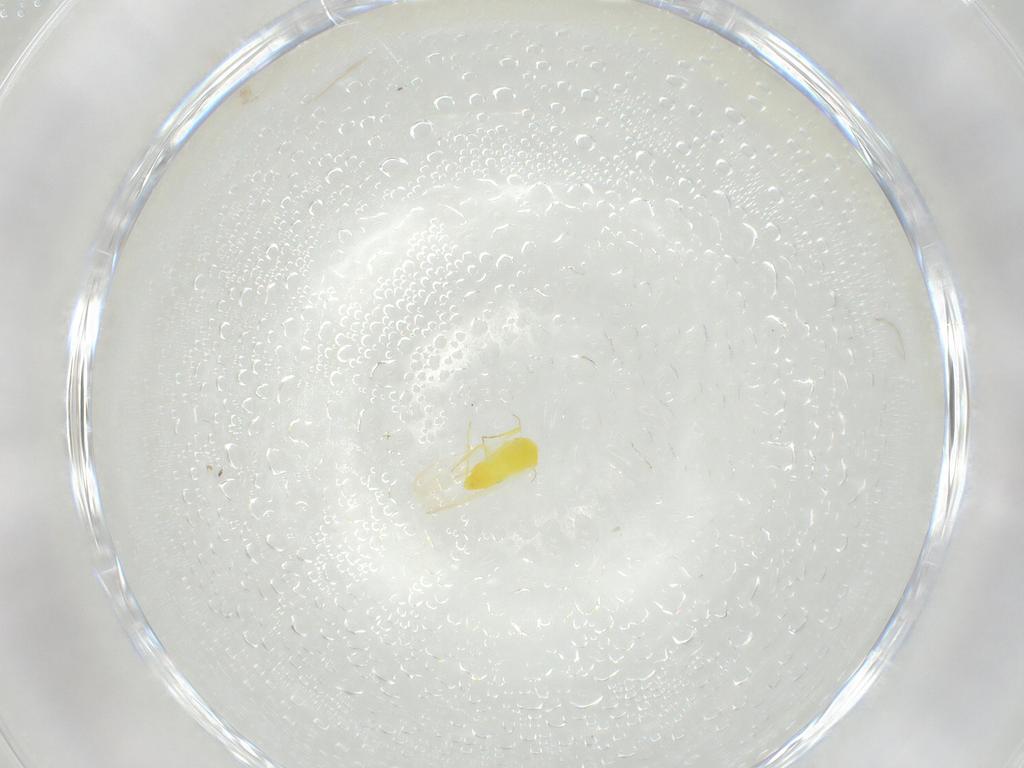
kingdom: Animalia
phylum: Arthropoda
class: Insecta
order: Hemiptera
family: Aleyrodidae
